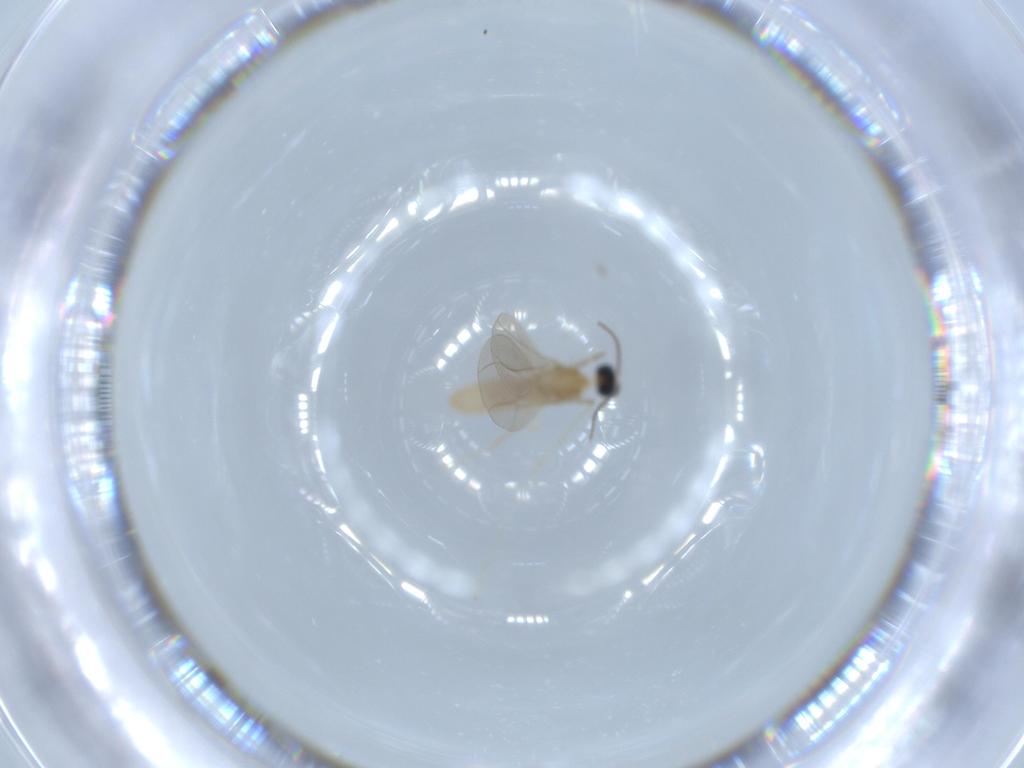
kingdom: Animalia
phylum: Arthropoda
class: Insecta
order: Diptera
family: Cecidomyiidae
